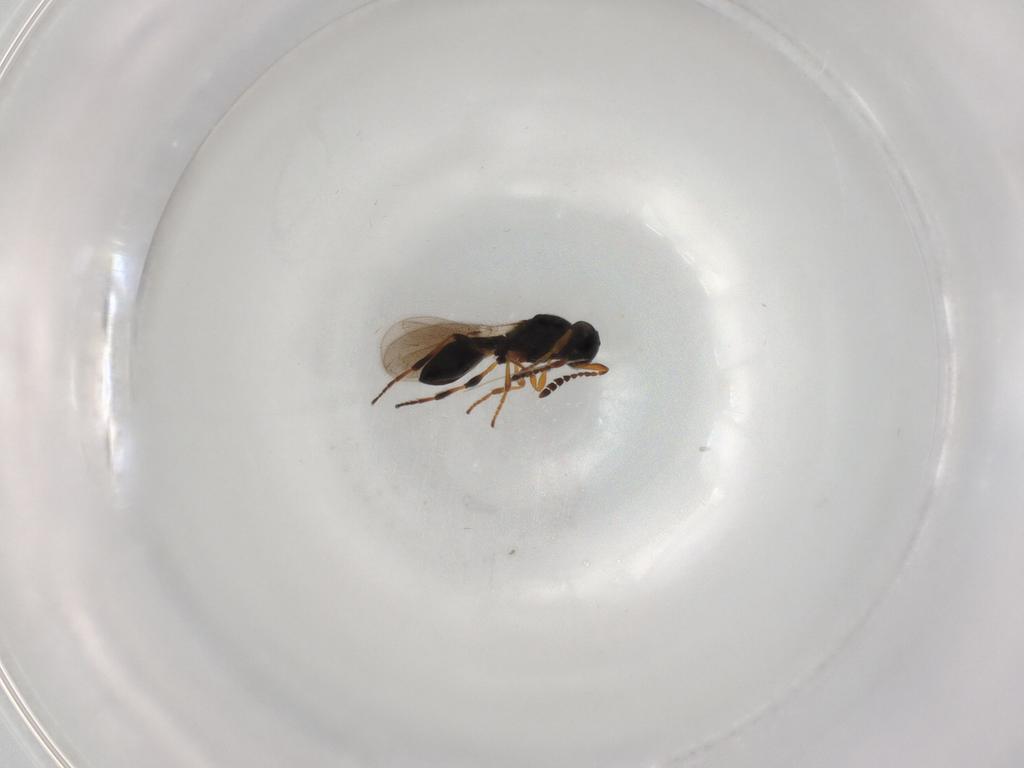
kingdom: Animalia
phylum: Arthropoda
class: Insecta
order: Hymenoptera
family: Platygastridae
